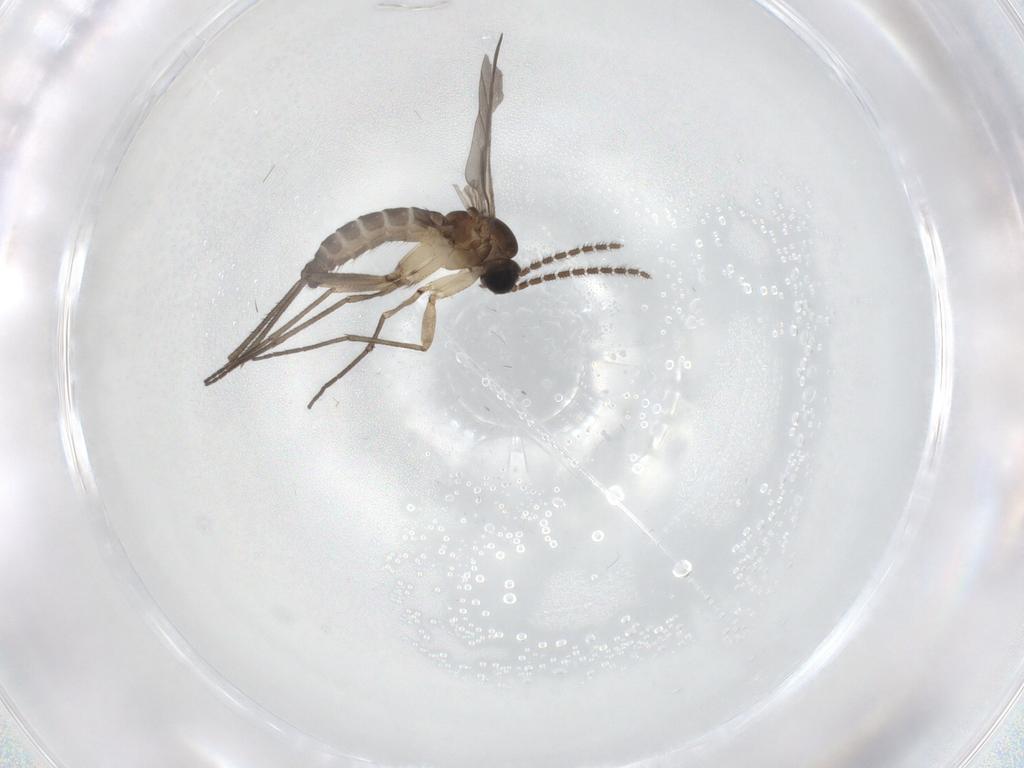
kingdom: Animalia
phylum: Arthropoda
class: Insecta
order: Diptera
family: Sciaridae
